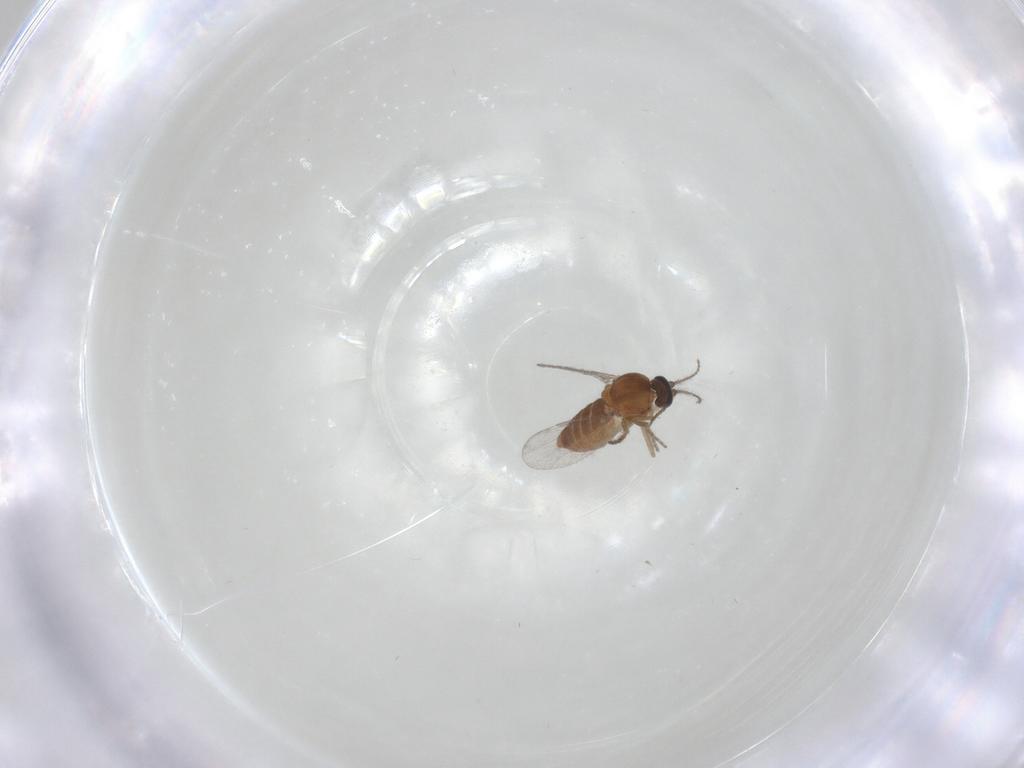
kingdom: Animalia
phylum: Arthropoda
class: Insecta
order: Diptera
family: Ceratopogonidae
